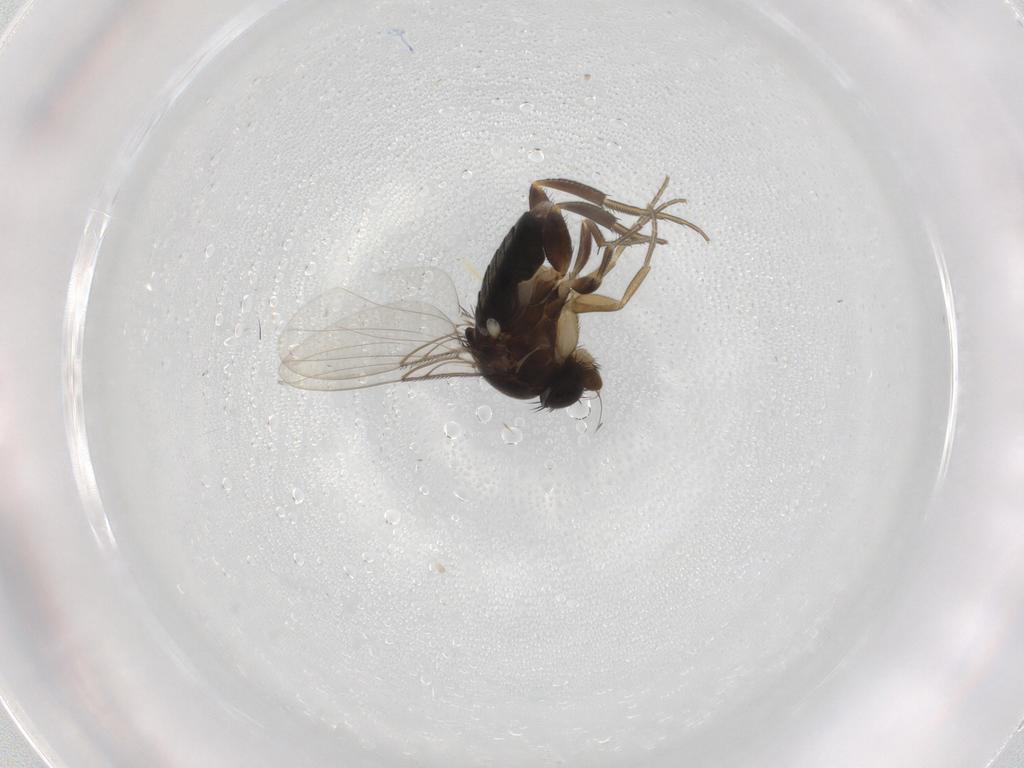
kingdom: Animalia
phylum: Arthropoda
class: Insecta
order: Diptera
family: Phoridae
